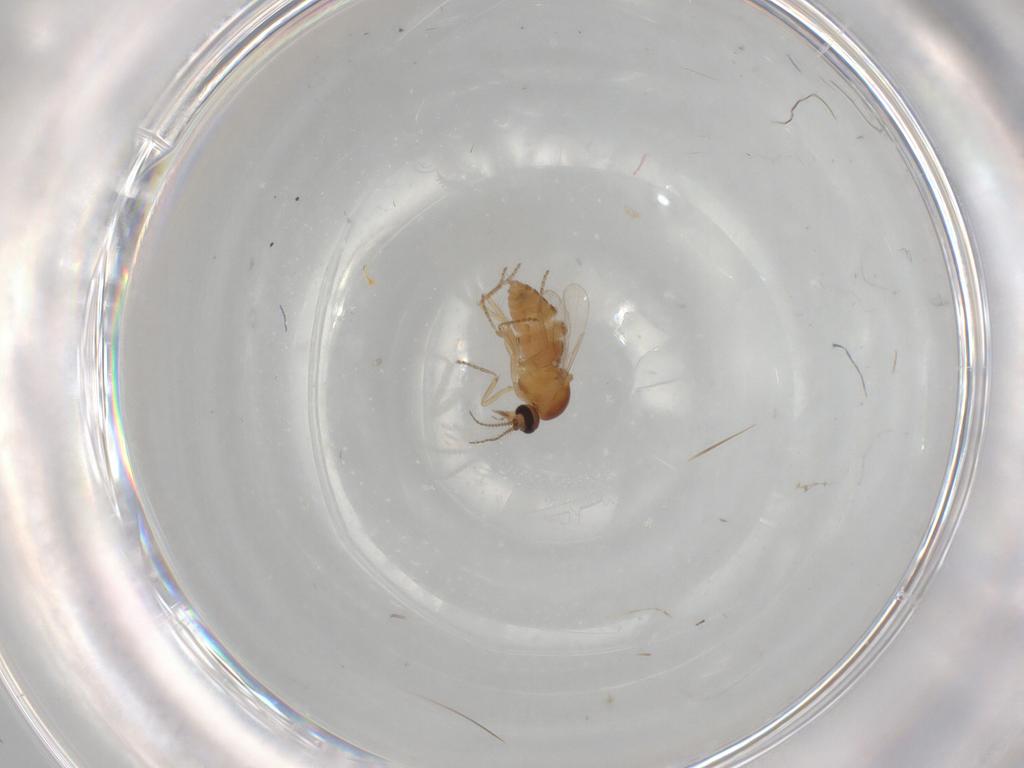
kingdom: Animalia
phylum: Arthropoda
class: Insecta
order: Diptera
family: Ceratopogonidae
